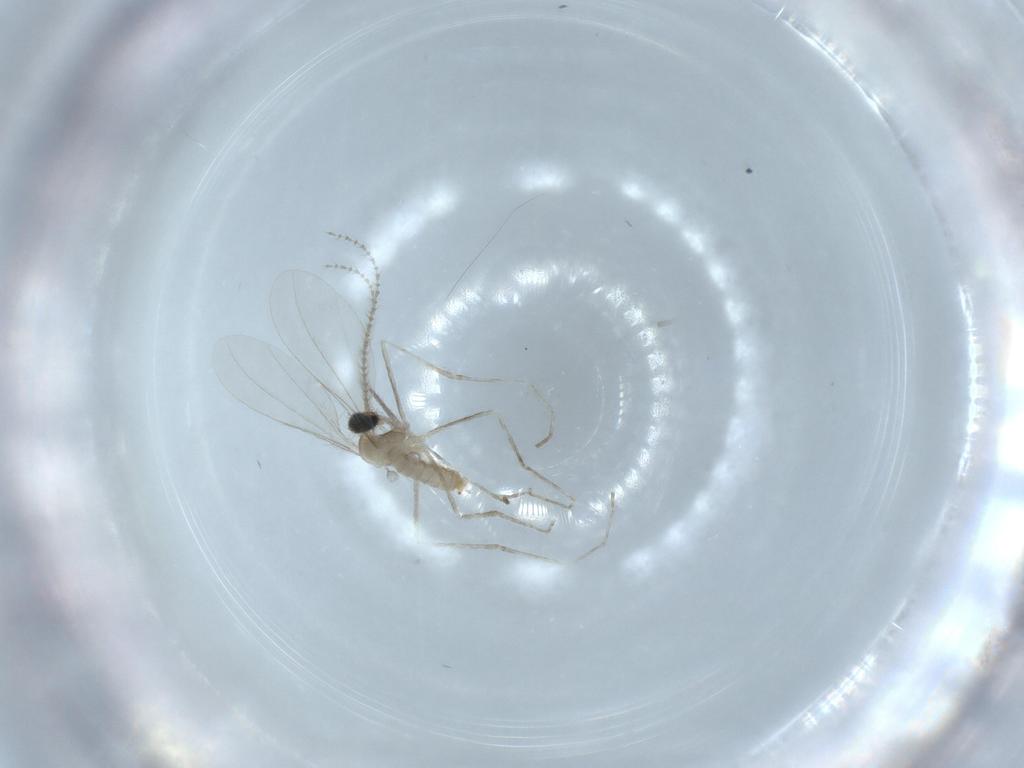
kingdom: Animalia
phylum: Arthropoda
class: Insecta
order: Diptera
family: Cecidomyiidae
